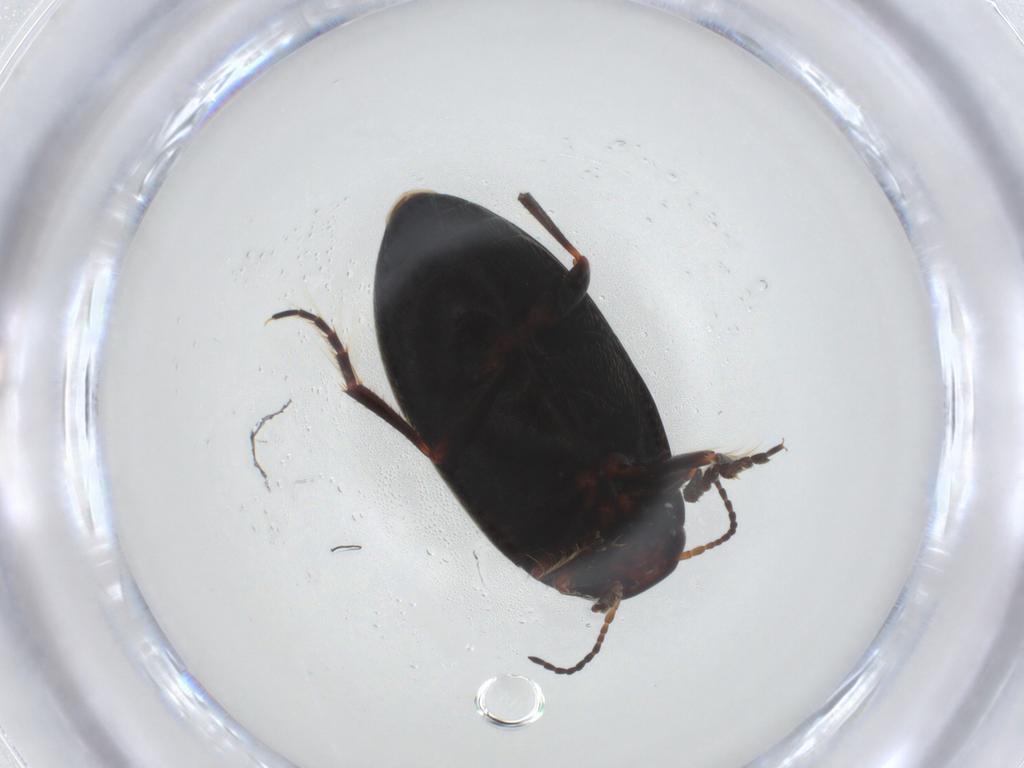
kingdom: Animalia
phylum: Arthropoda
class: Insecta
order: Coleoptera
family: Dytiscidae
